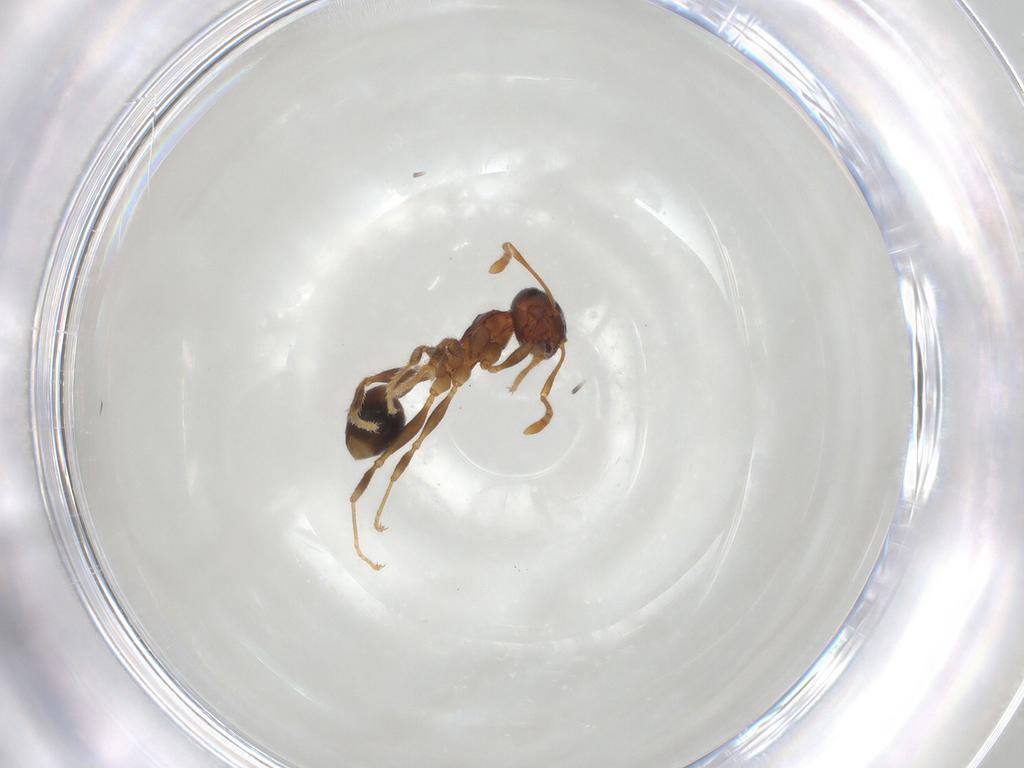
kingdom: Animalia
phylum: Arthropoda
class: Insecta
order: Hymenoptera
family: Formicidae
